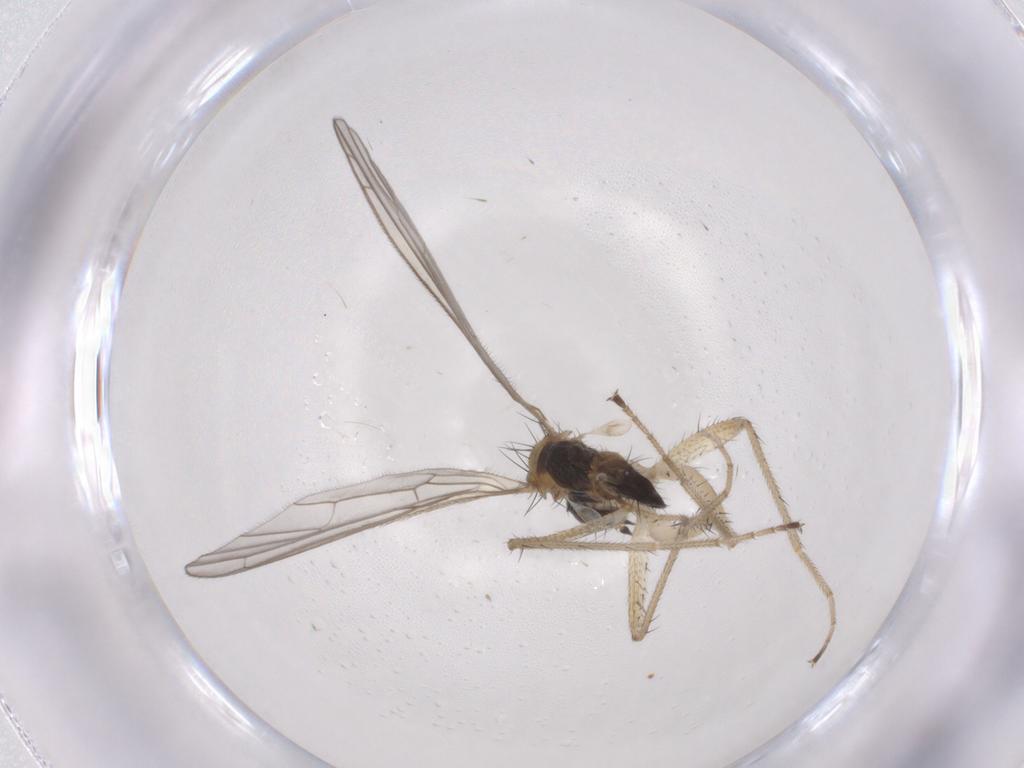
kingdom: Animalia
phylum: Arthropoda
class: Insecta
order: Diptera
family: Empididae
